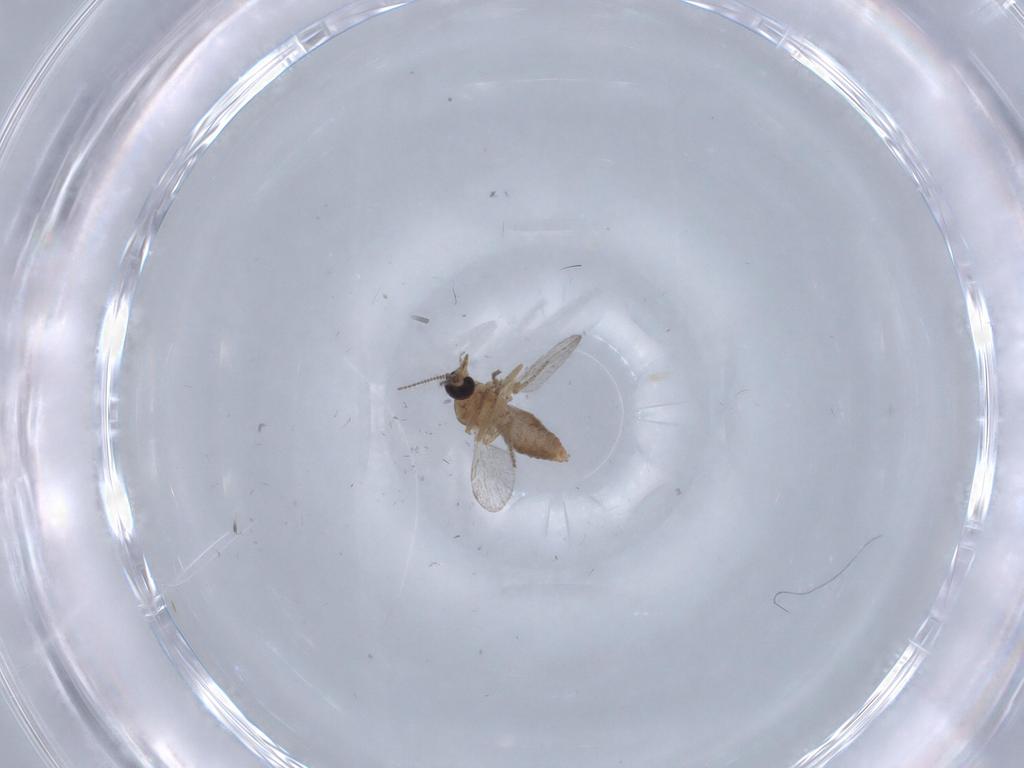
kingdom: Animalia
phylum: Arthropoda
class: Insecta
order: Diptera
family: Ceratopogonidae
